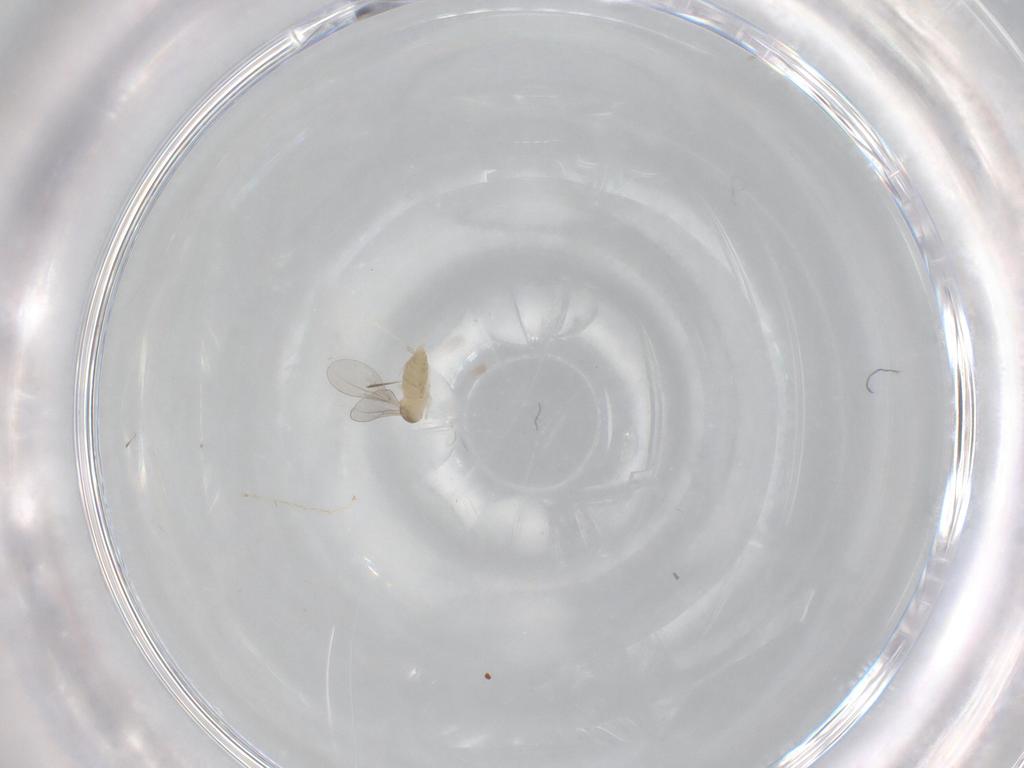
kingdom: Animalia
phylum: Arthropoda
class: Insecta
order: Diptera
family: Cecidomyiidae
